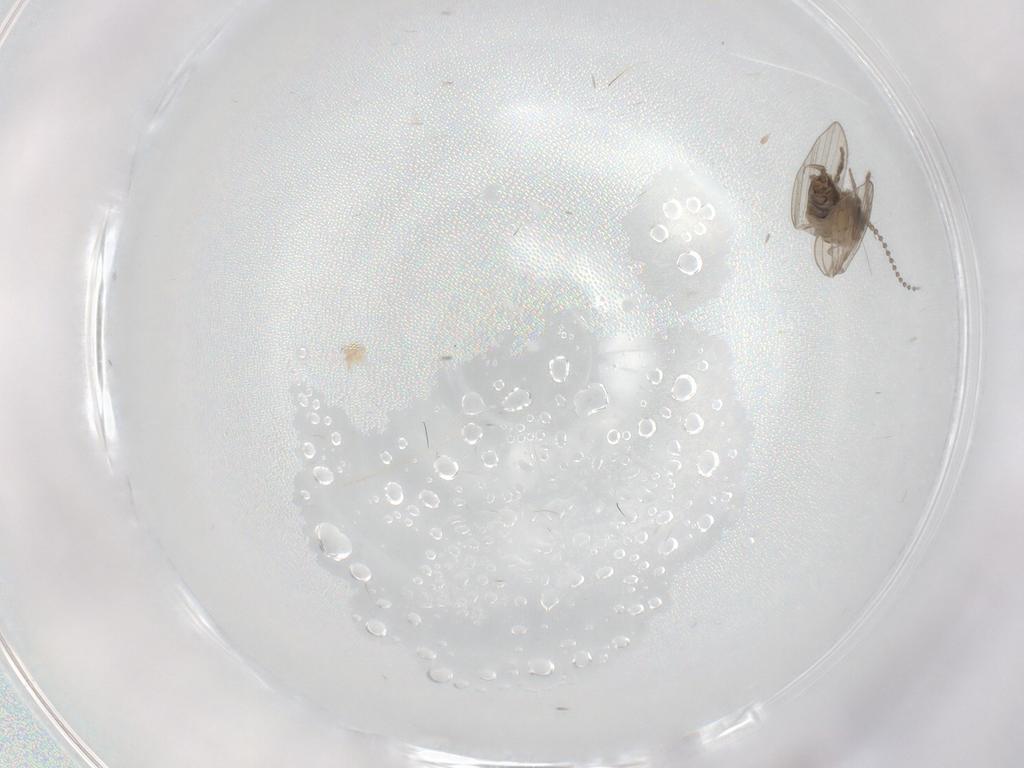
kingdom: Animalia
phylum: Arthropoda
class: Insecta
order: Diptera
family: Psychodidae
